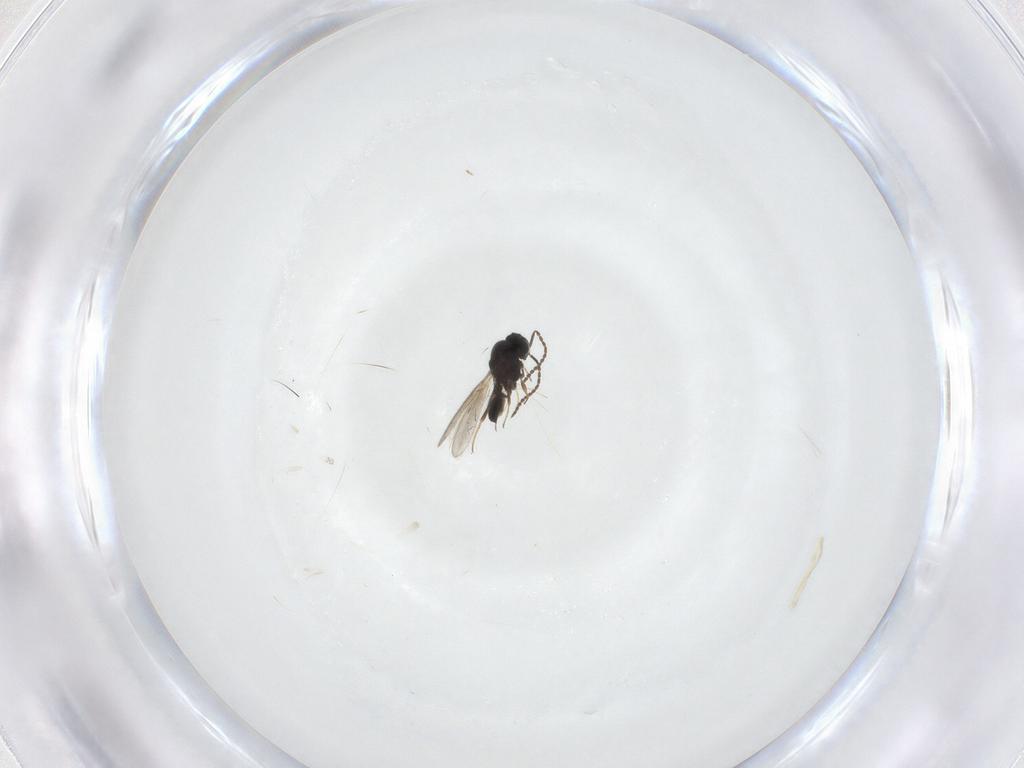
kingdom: Animalia
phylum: Arthropoda
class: Insecta
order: Hymenoptera
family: Scelionidae
